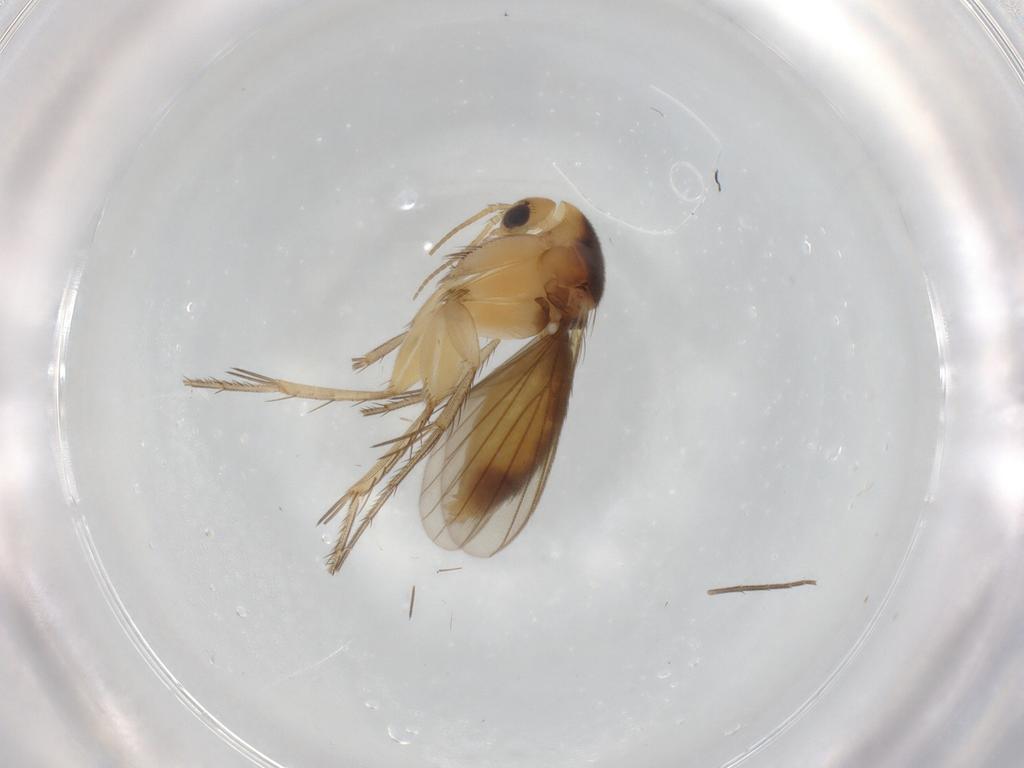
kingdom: Animalia
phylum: Arthropoda
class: Insecta
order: Diptera
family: Mycetophilidae
